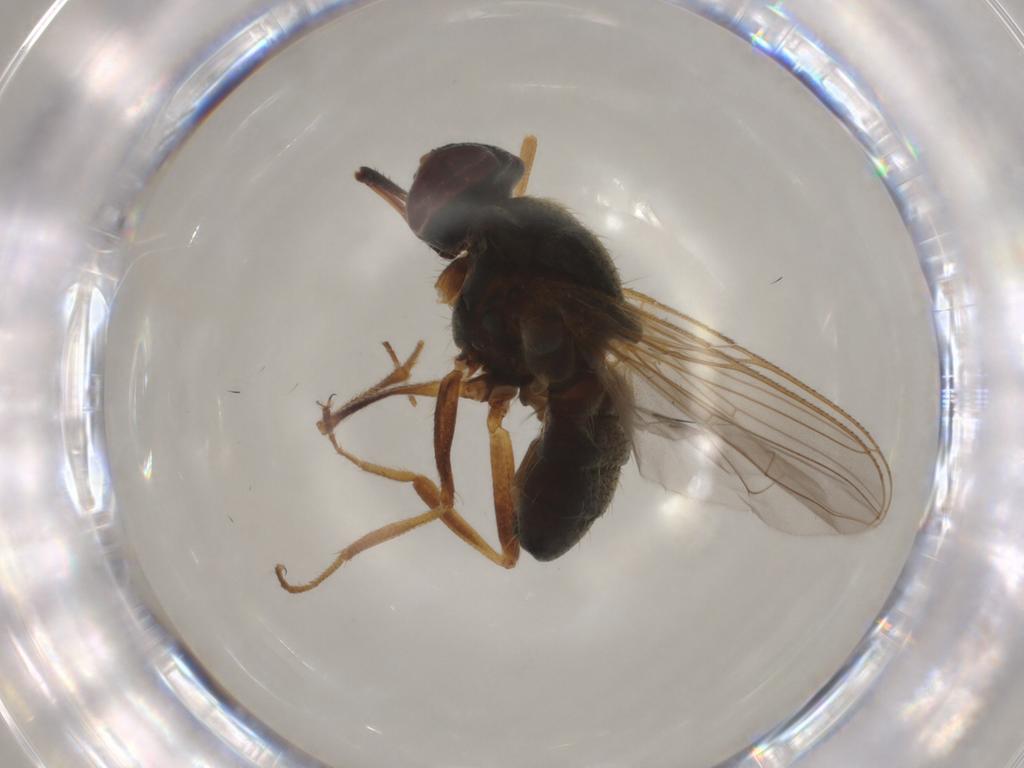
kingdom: Animalia
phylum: Arthropoda
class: Insecta
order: Diptera
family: Muscidae
